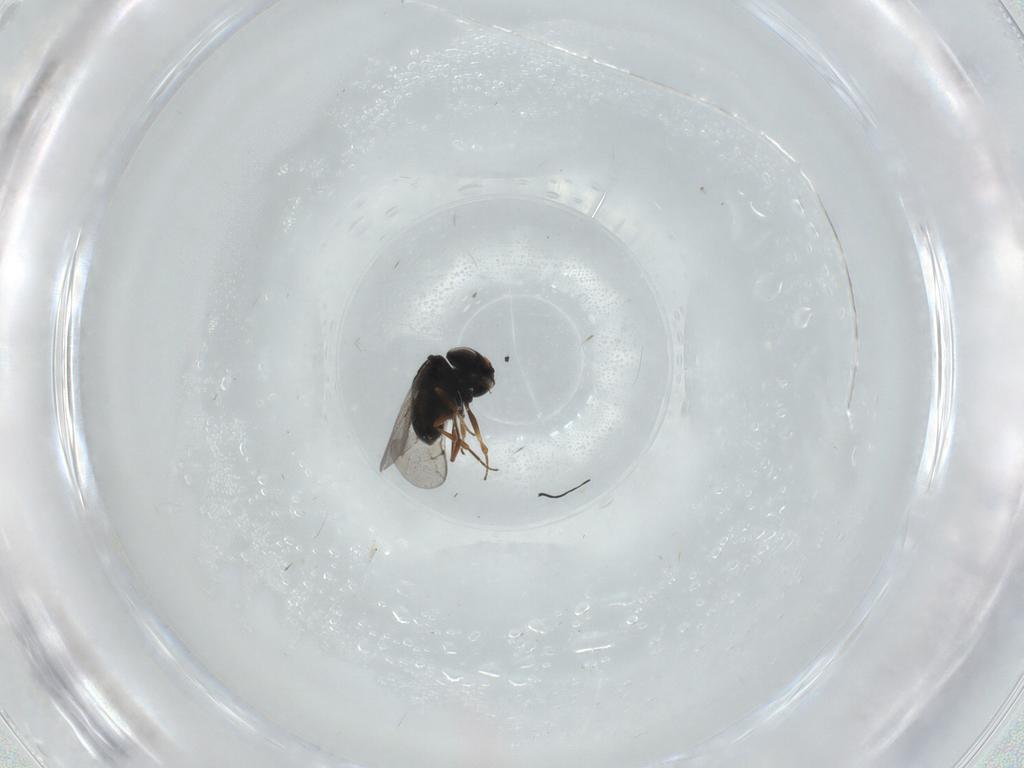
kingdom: Animalia
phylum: Arthropoda
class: Insecta
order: Hymenoptera
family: Scelionidae
